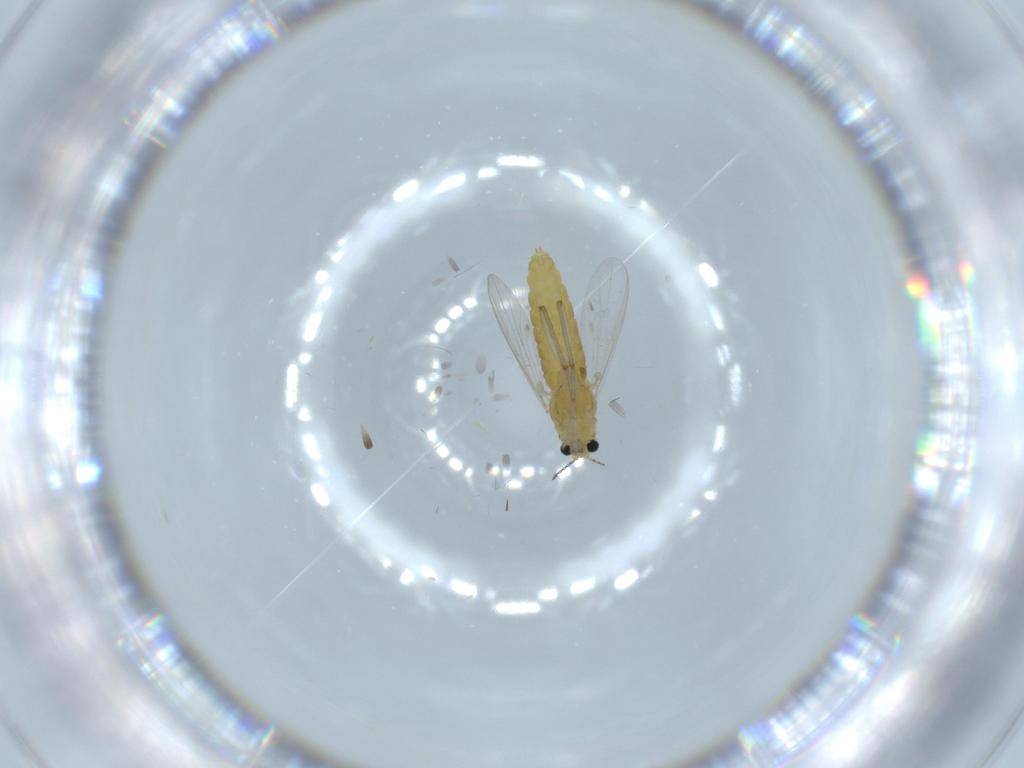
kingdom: Animalia
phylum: Arthropoda
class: Insecta
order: Diptera
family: Chironomidae
